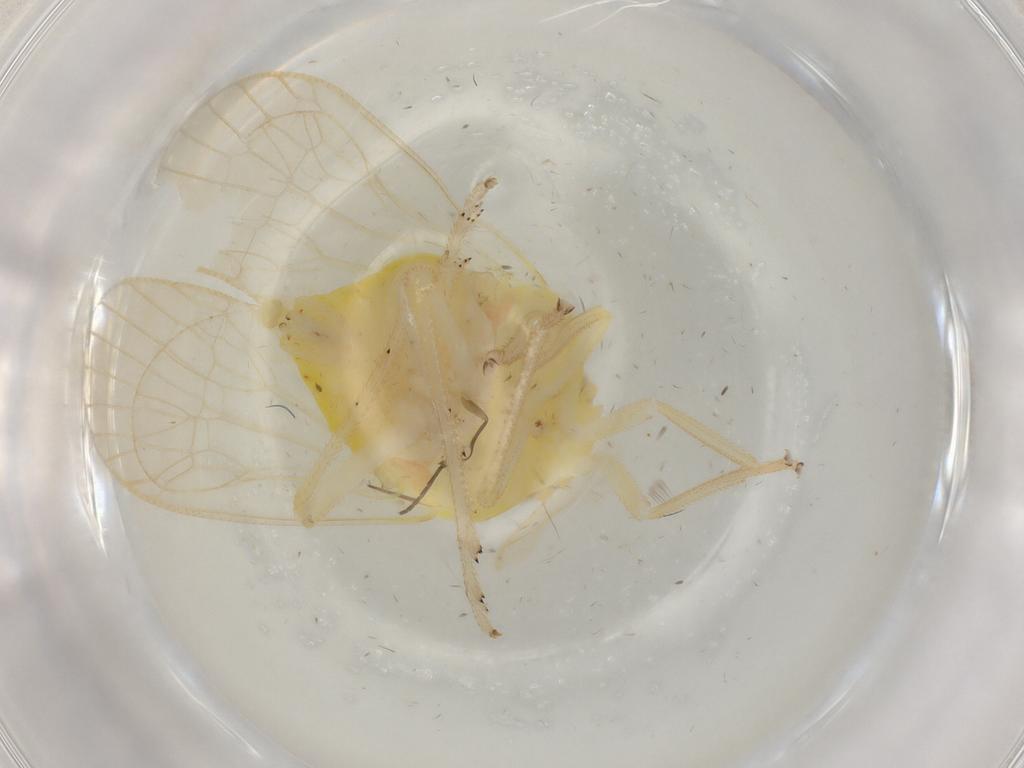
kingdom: Animalia
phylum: Arthropoda
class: Insecta
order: Hemiptera
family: Tropiduchidae
